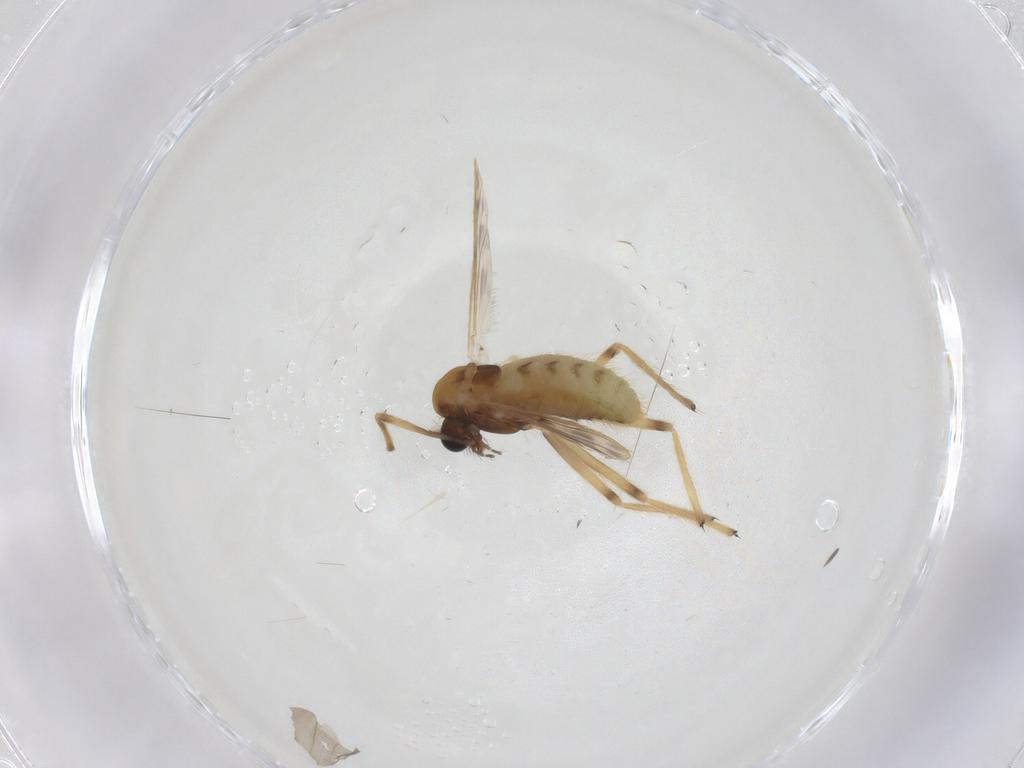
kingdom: Animalia
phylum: Arthropoda
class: Insecta
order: Diptera
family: Chironomidae
